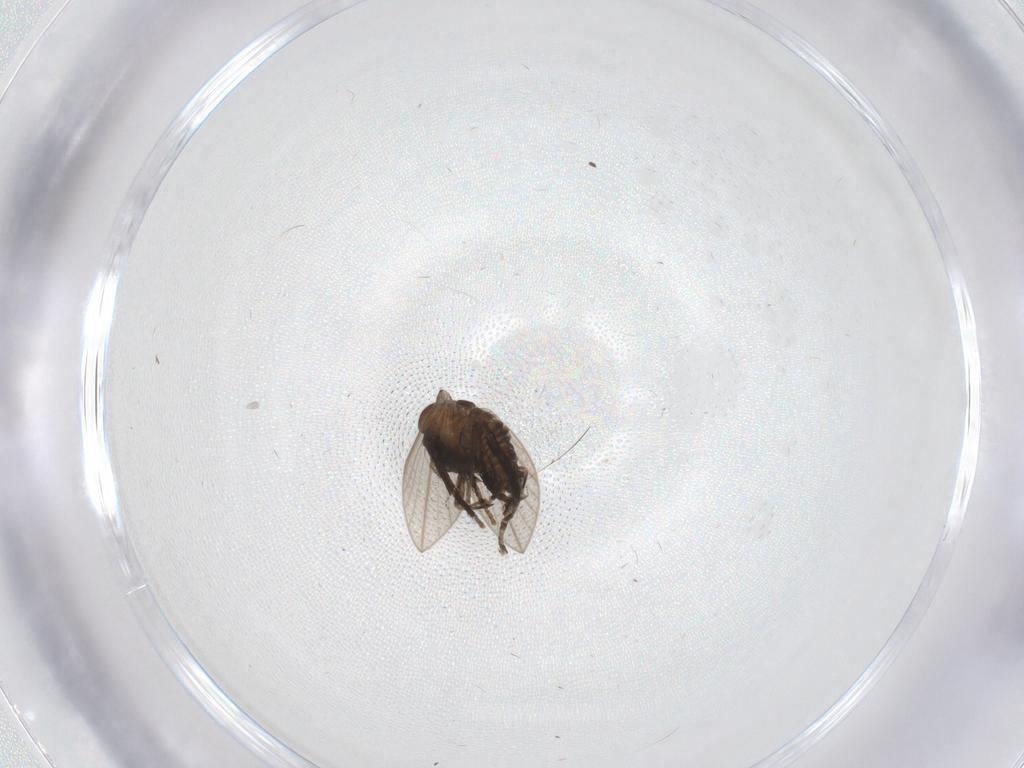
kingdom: Animalia
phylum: Arthropoda
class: Insecta
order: Diptera
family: Psychodidae
